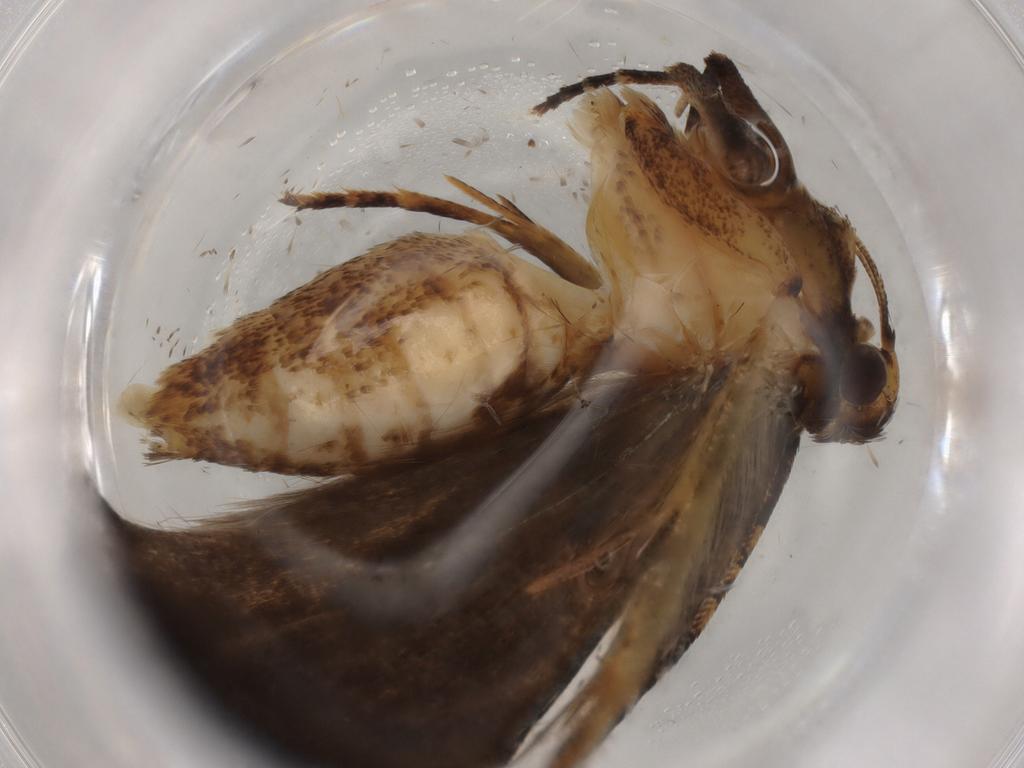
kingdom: Animalia
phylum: Arthropoda
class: Insecta
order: Lepidoptera
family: Gelechiidae
